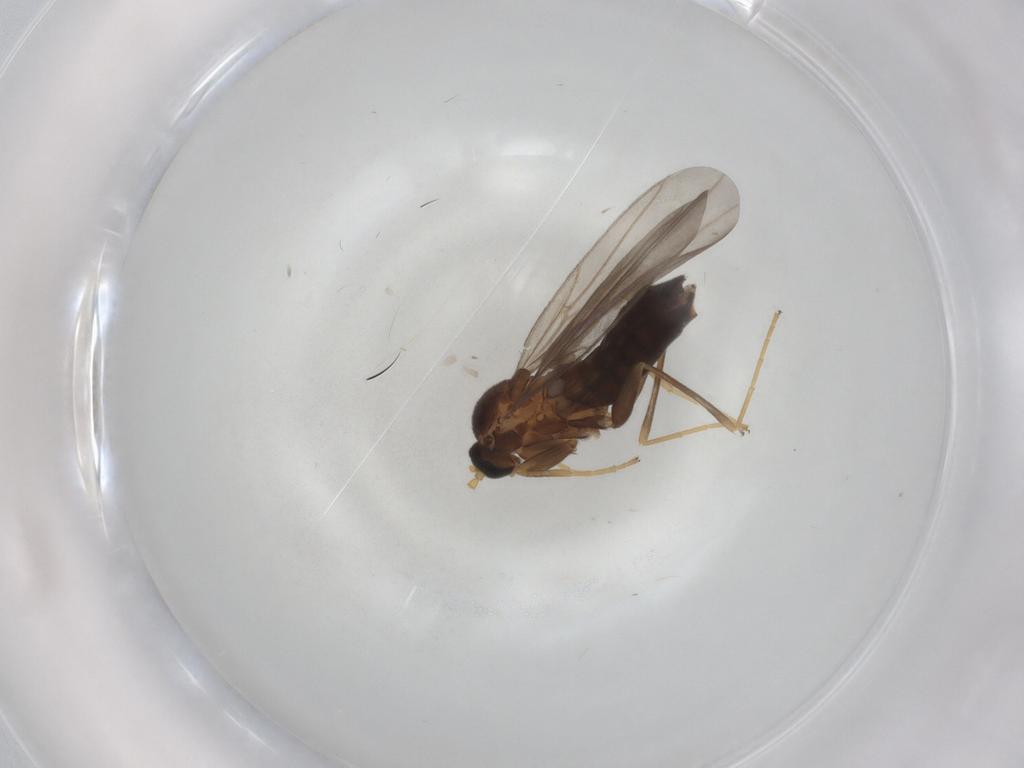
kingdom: Animalia
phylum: Arthropoda
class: Insecta
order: Diptera
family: Scatopsidae
